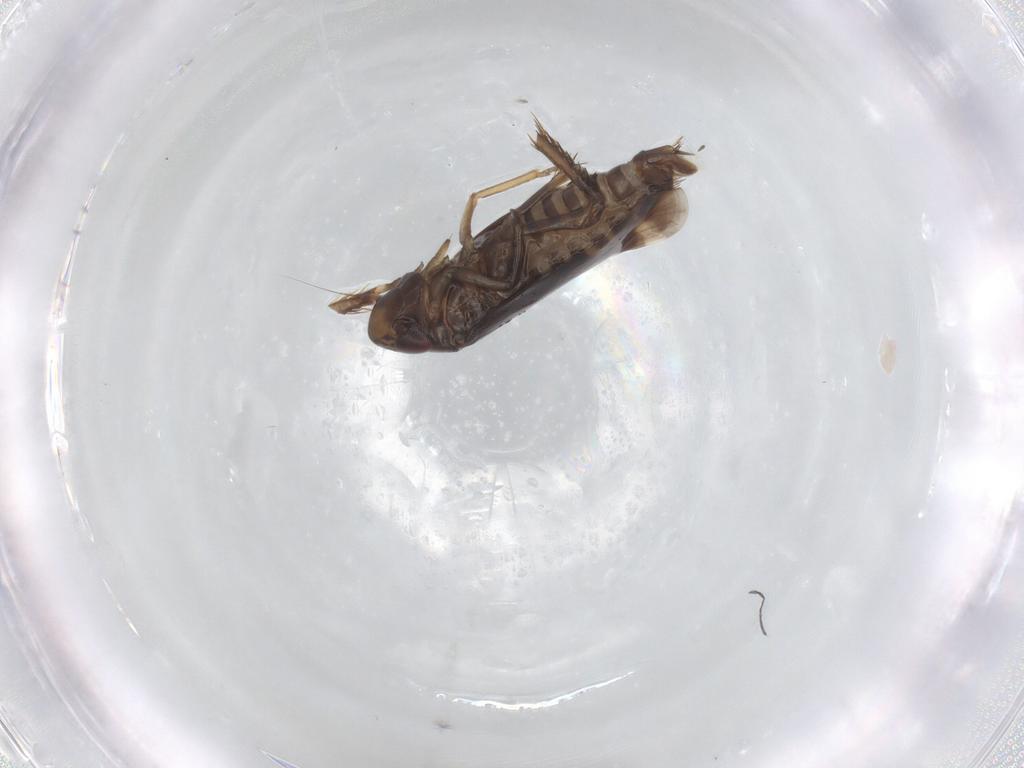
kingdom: Animalia
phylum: Arthropoda
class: Insecta
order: Hemiptera
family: Cicadellidae
